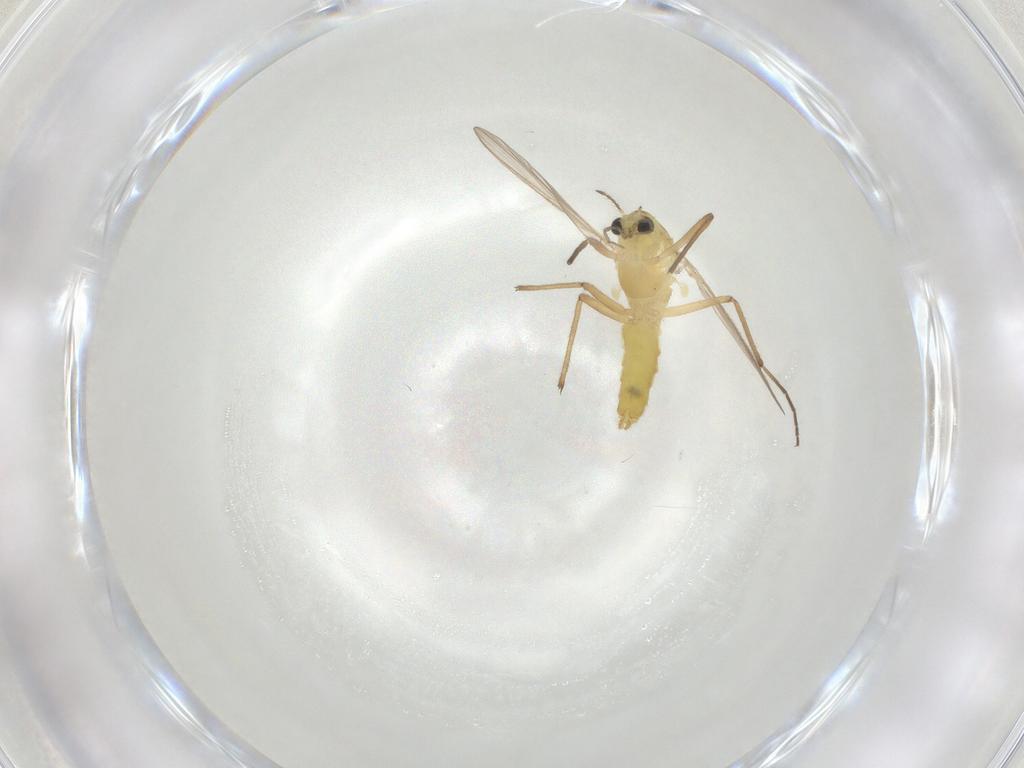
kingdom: Animalia
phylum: Arthropoda
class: Insecta
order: Diptera
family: Chironomidae
